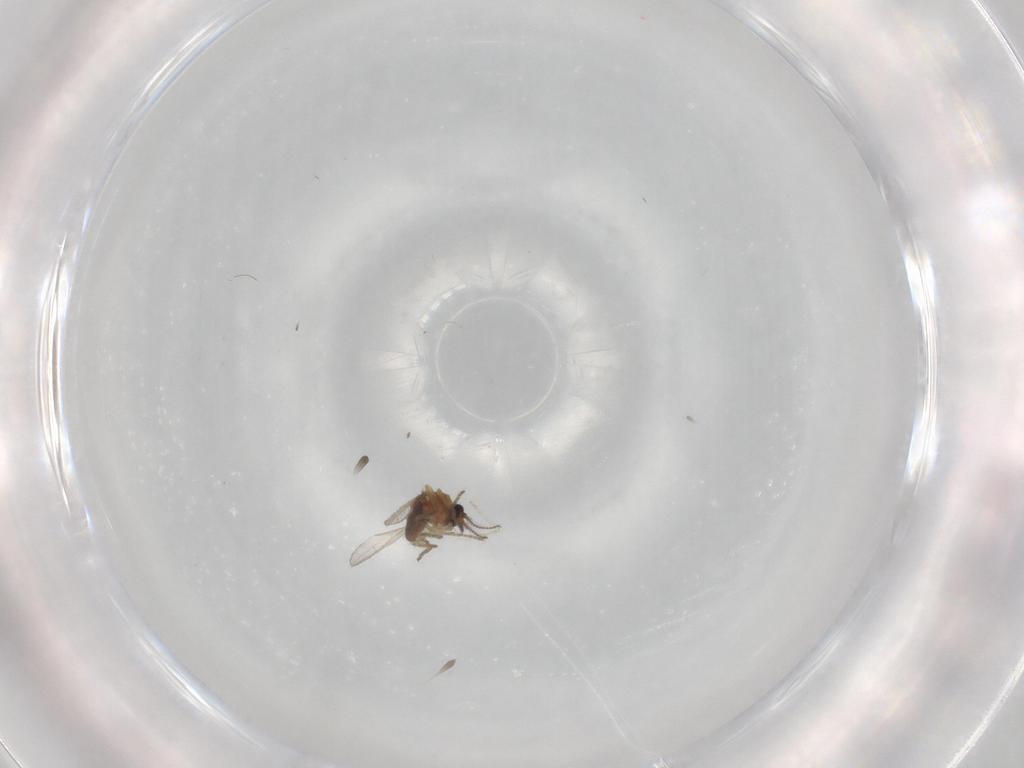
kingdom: Animalia
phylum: Arthropoda
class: Insecta
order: Diptera
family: Ceratopogonidae
